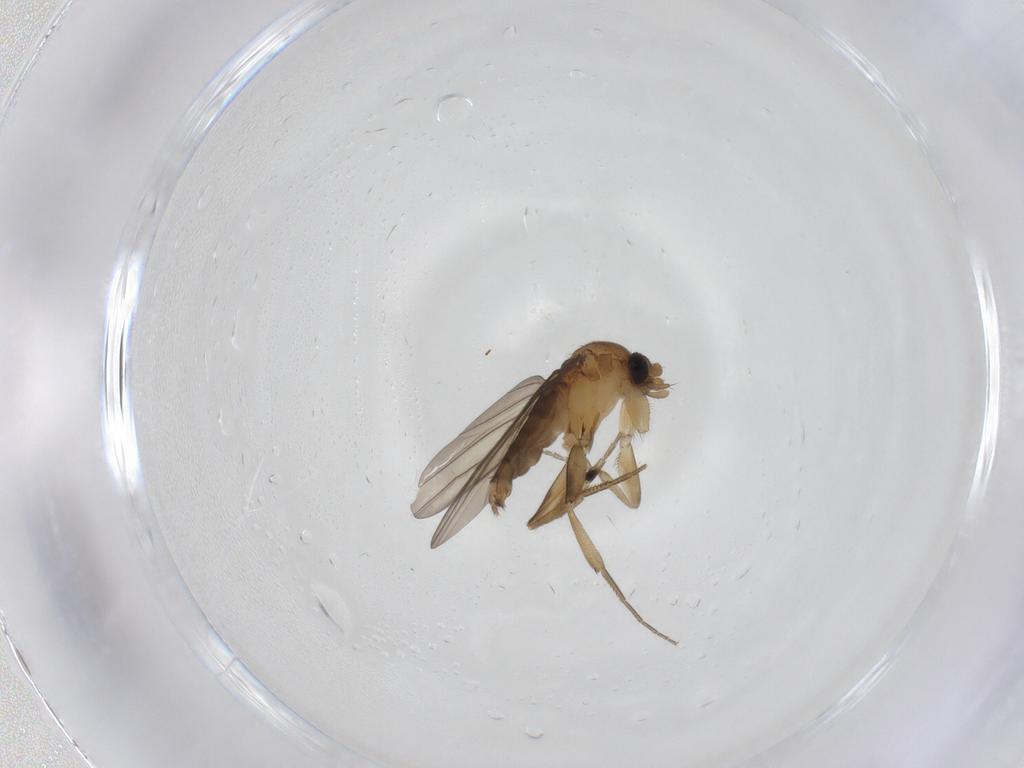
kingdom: Animalia
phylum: Arthropoda
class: Insecta
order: Diptera
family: Phoridae
